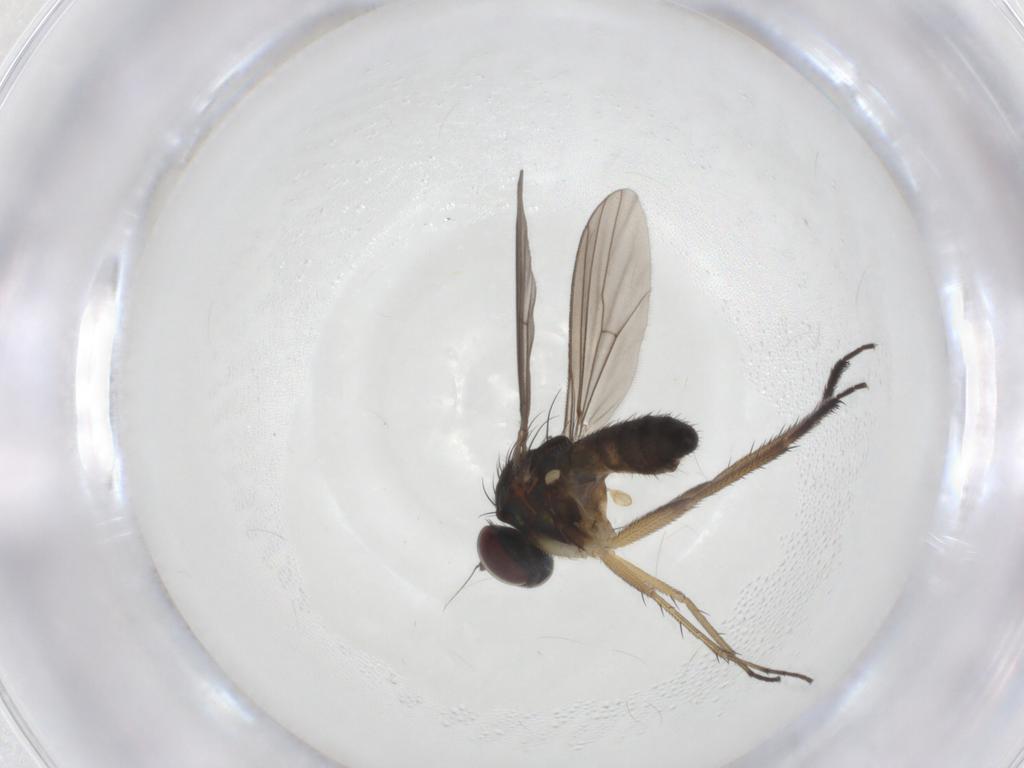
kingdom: Animalia
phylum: Arthropoda
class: Insecta
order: Diptera
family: Dolichopodidae
